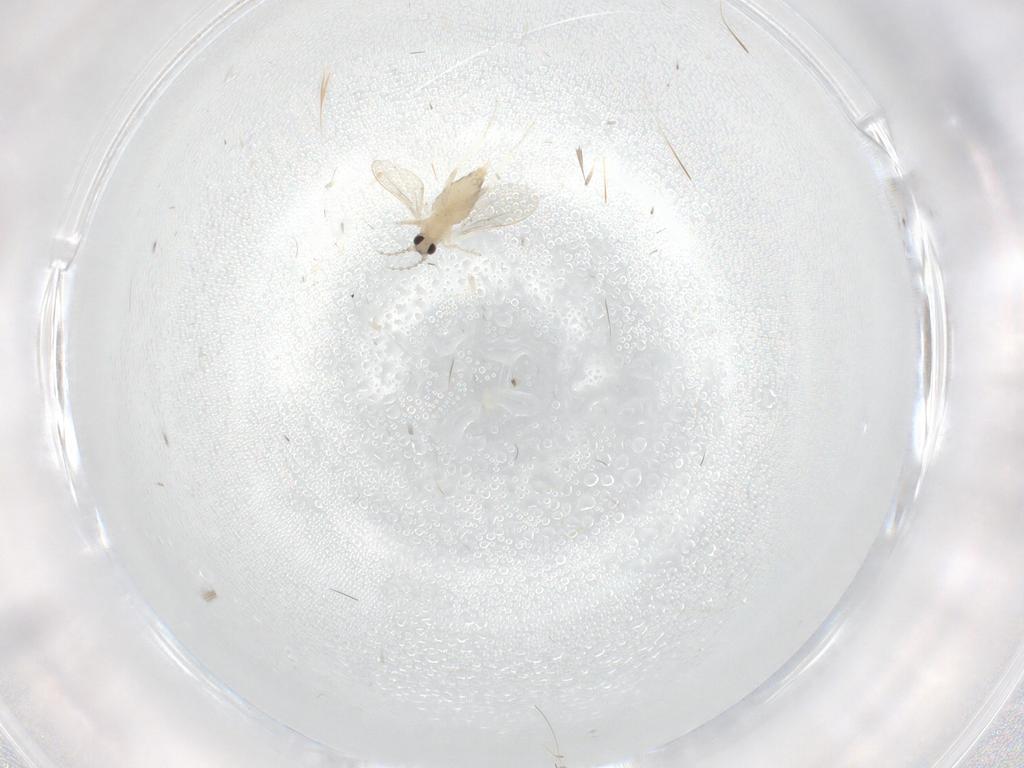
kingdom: Animalia
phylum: Arthropoda
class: Insecta
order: Diptera
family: Cecidomyiidae
